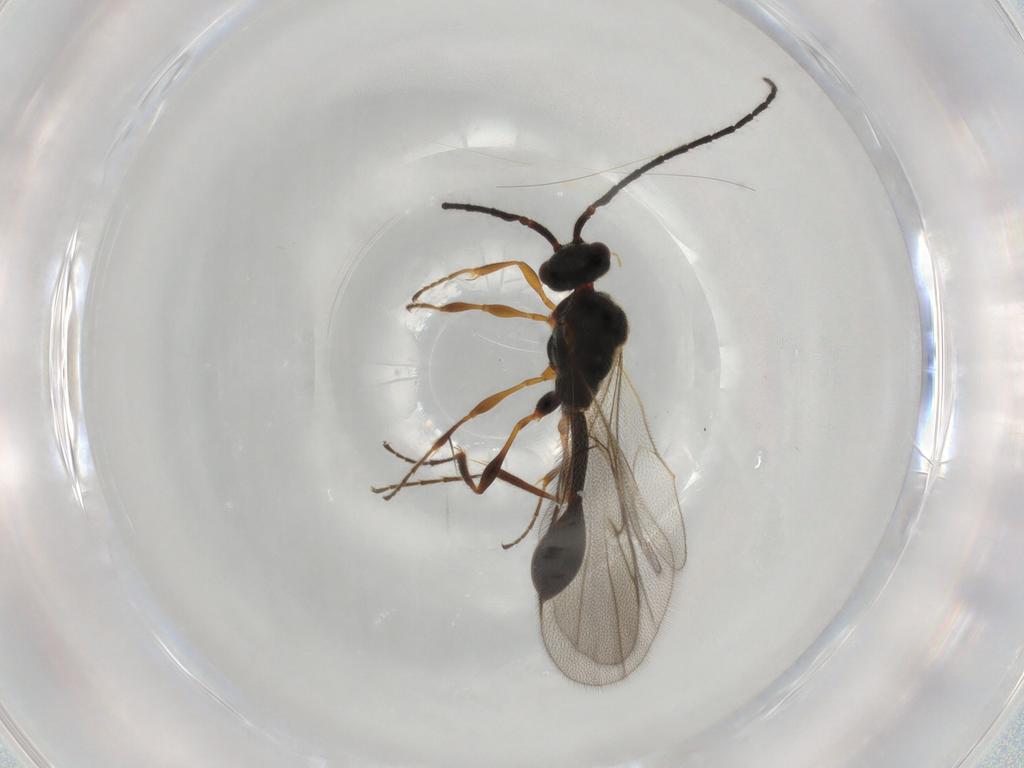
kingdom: Animalia
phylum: Arthropoda
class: Insecta
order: Hymenoptera
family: Diapriidae
